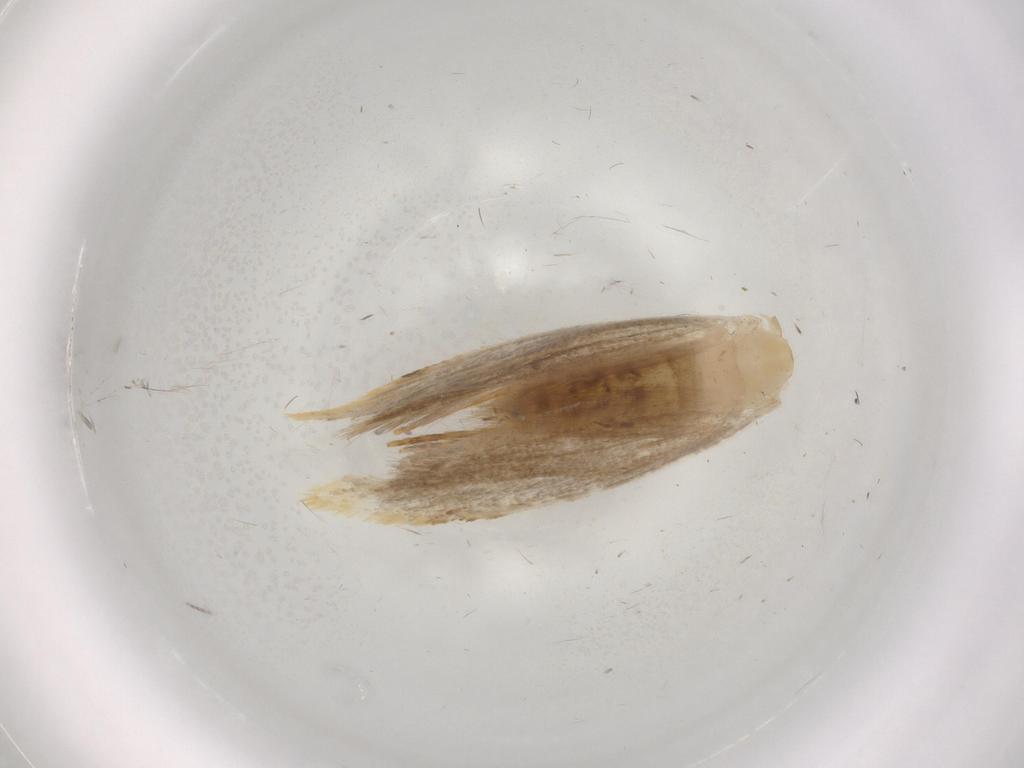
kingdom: Animalia
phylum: Arthropoda
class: Insecta
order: Lepidoptera
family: Tineidae
